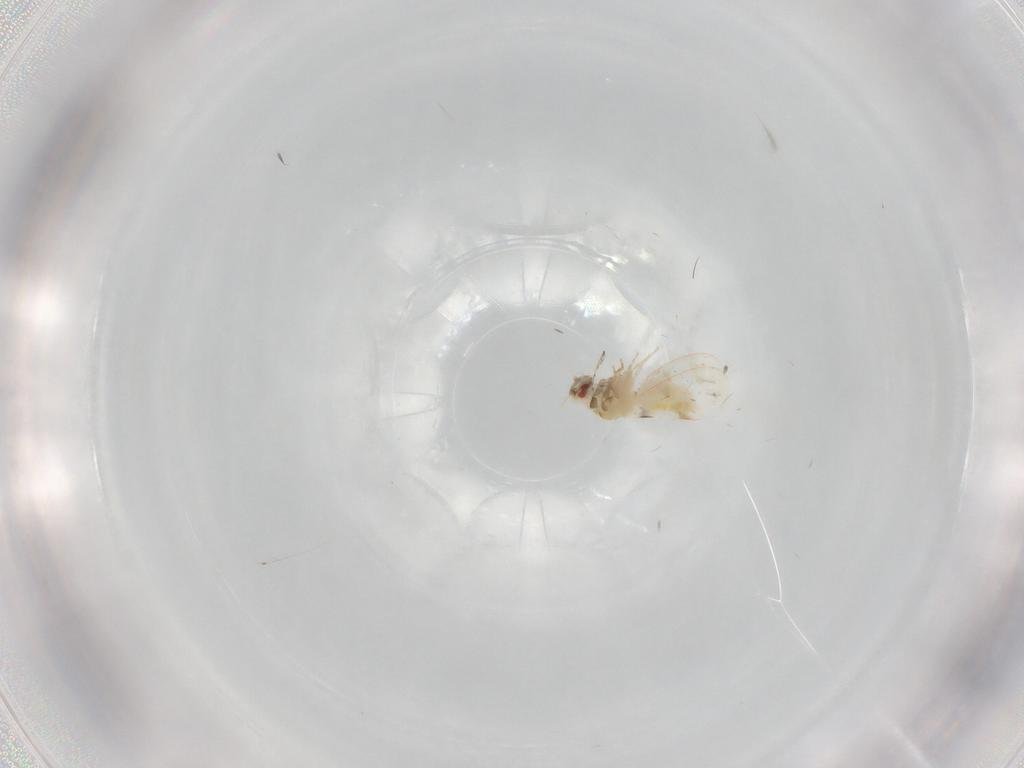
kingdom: Animalia
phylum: Arthropoda
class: Insecta
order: Hemiptera
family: Aleyrodidae
